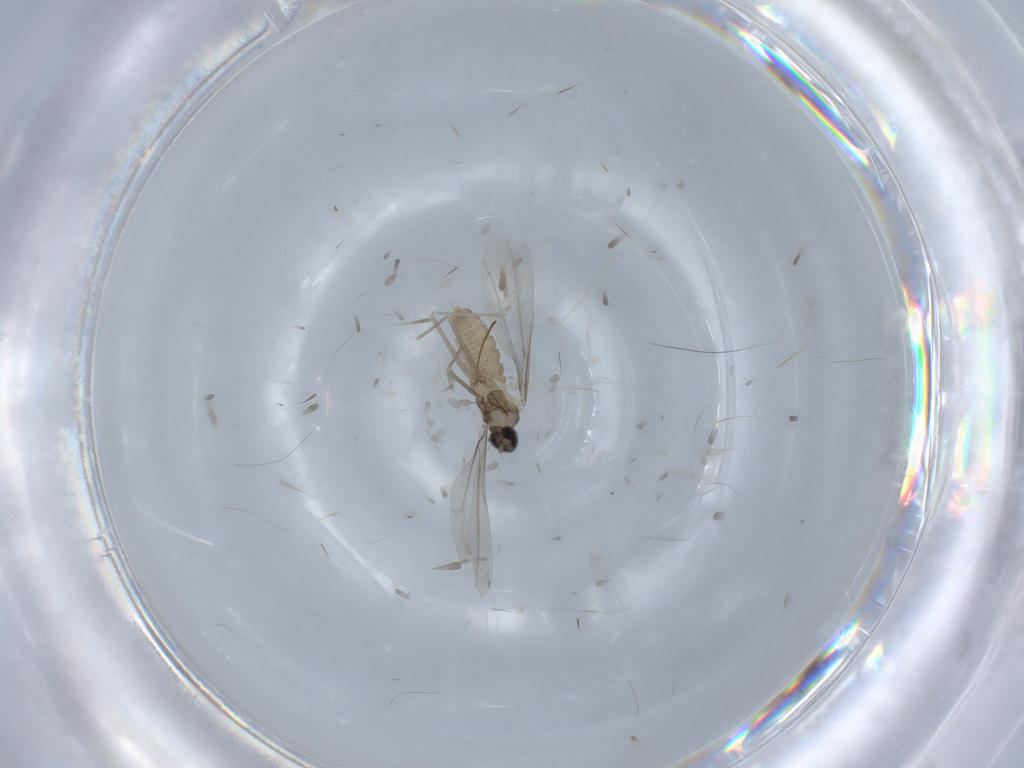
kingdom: Animalia
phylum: Arthropoda
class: Insecta
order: Diptera
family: Cecidomyiidae
